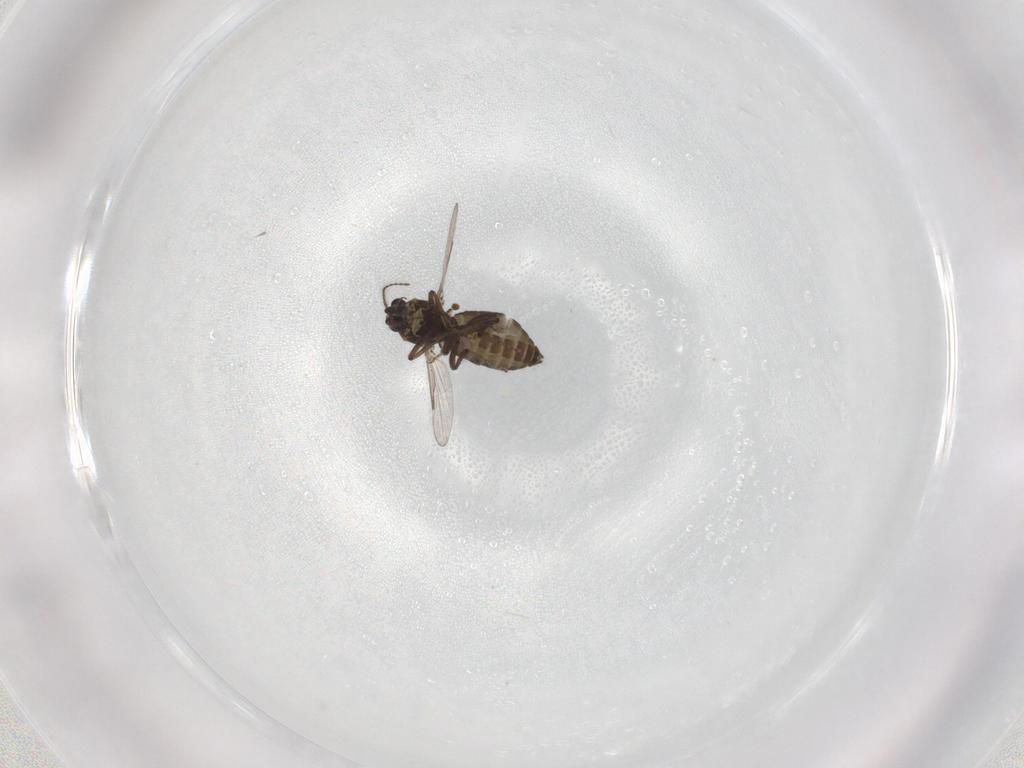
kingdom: Animalia
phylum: Arthropoda
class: Insecta
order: Diptera
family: Ceratopogonidae
